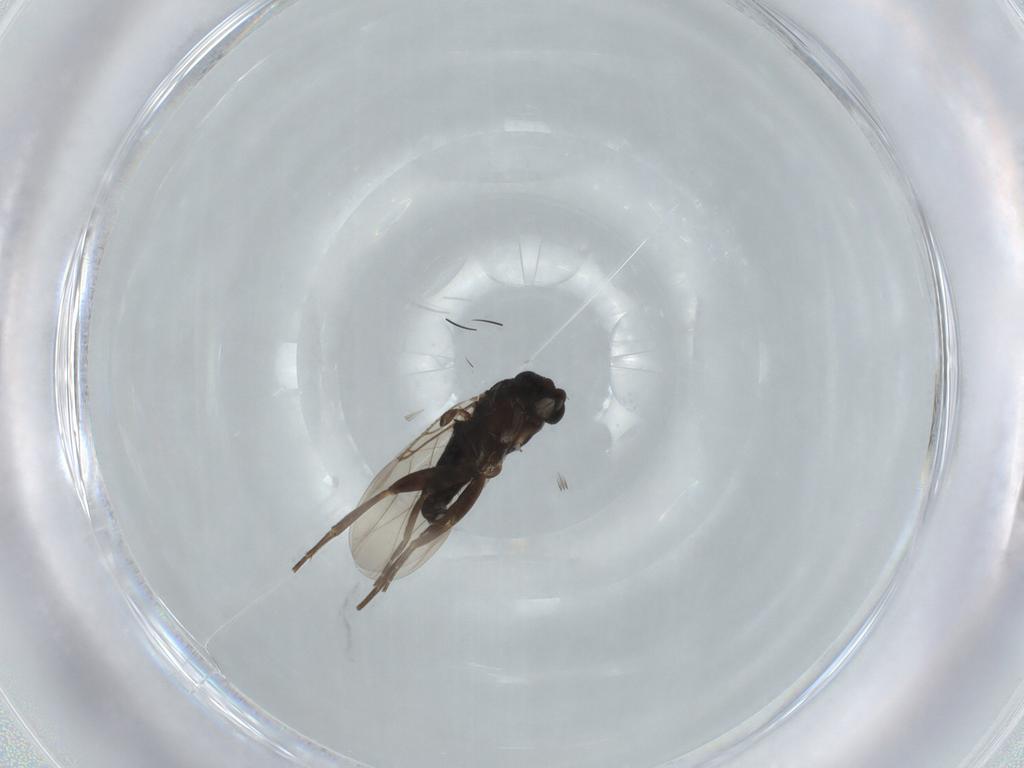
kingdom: Animalia
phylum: Arthropoda
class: Insecta
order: Diptera
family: Phoridae
